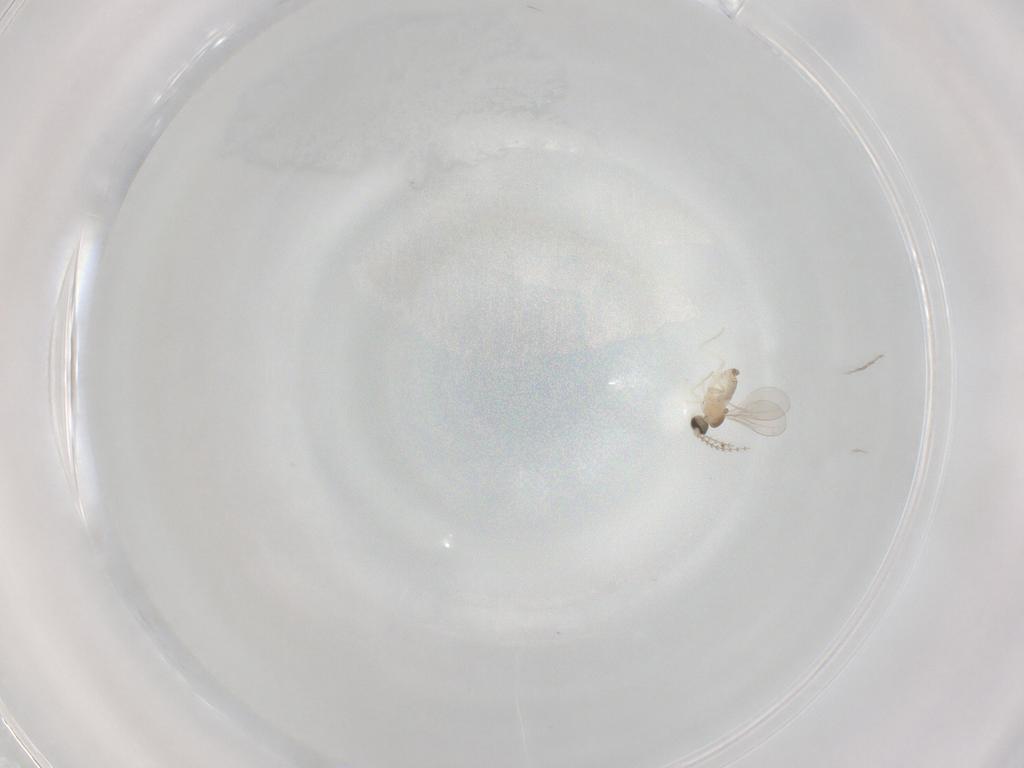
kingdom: Animalia
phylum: Arthropoda
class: Insecta
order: Diptera
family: Cecidomyiidae
